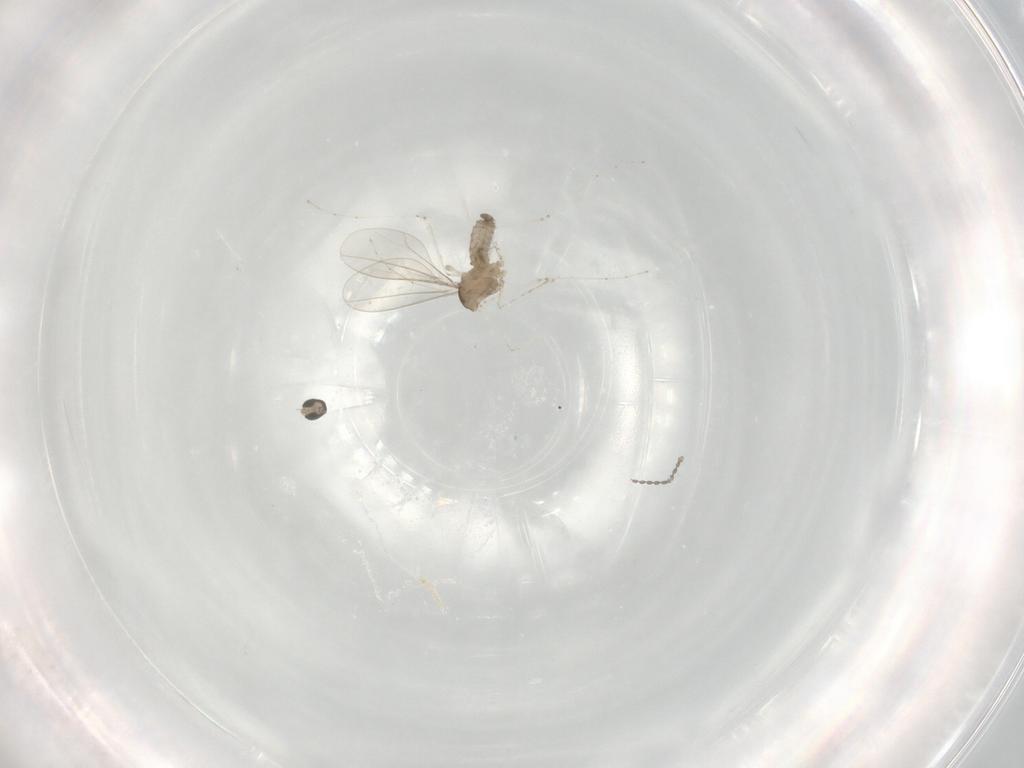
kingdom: Animalia
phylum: Arthropoda
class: Insecta
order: Diptera
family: Cecidomyiidae
